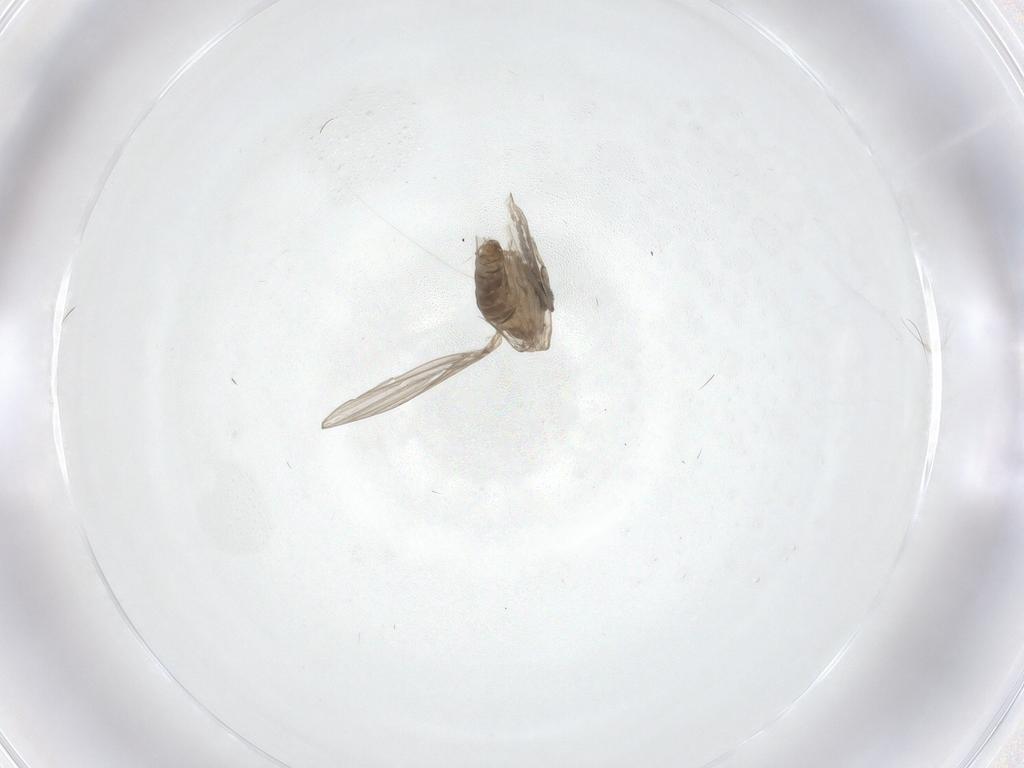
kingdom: Animalia
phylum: Arthropoda
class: Insecta
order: Diptera
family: Sciaridae
